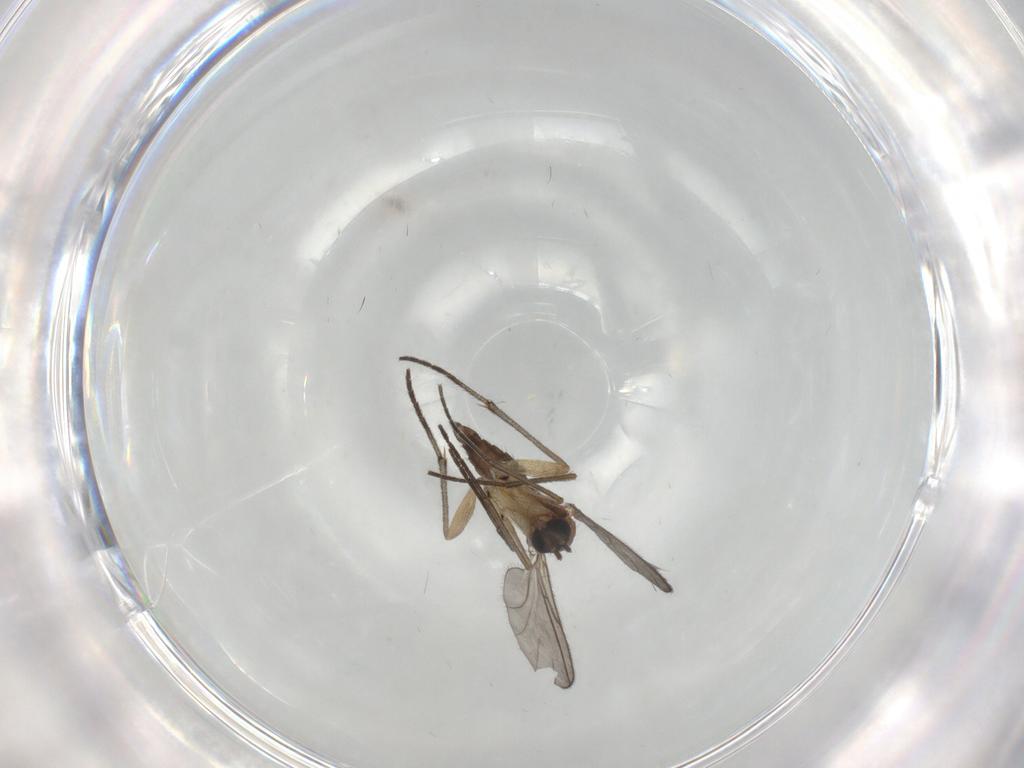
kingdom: Animalia
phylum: Arthropoda
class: Insecta
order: Diptera
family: Sciaridae
